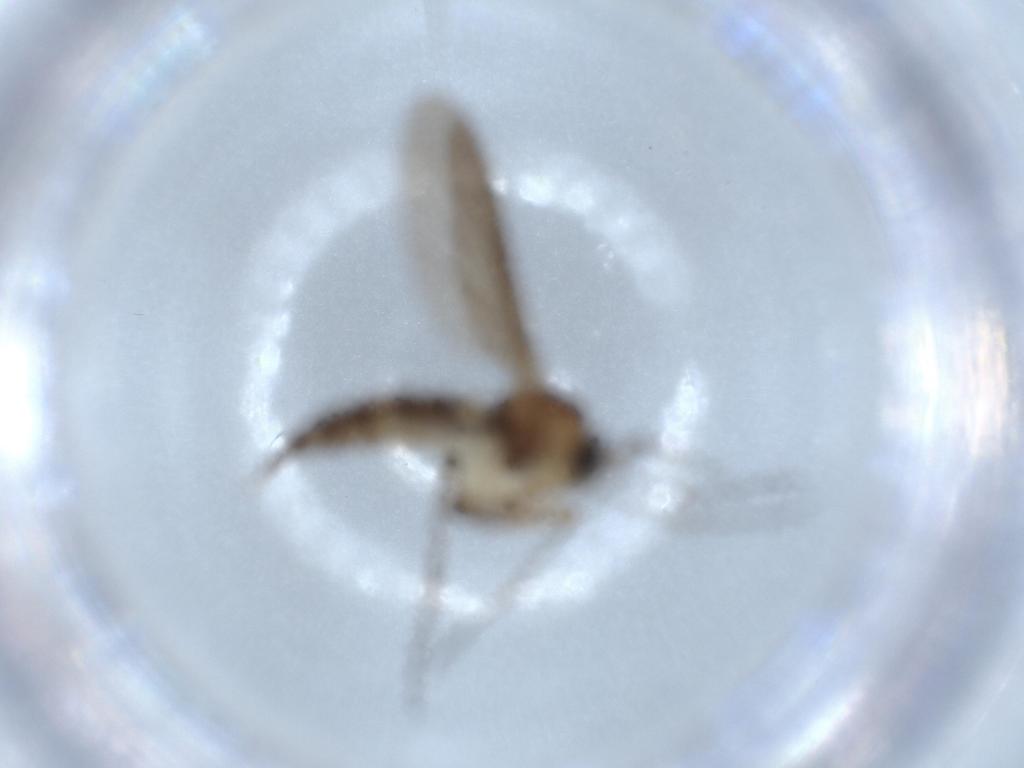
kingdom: Animalia
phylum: Arthropoda
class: Insecta
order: Diptera
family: Sciaridae
